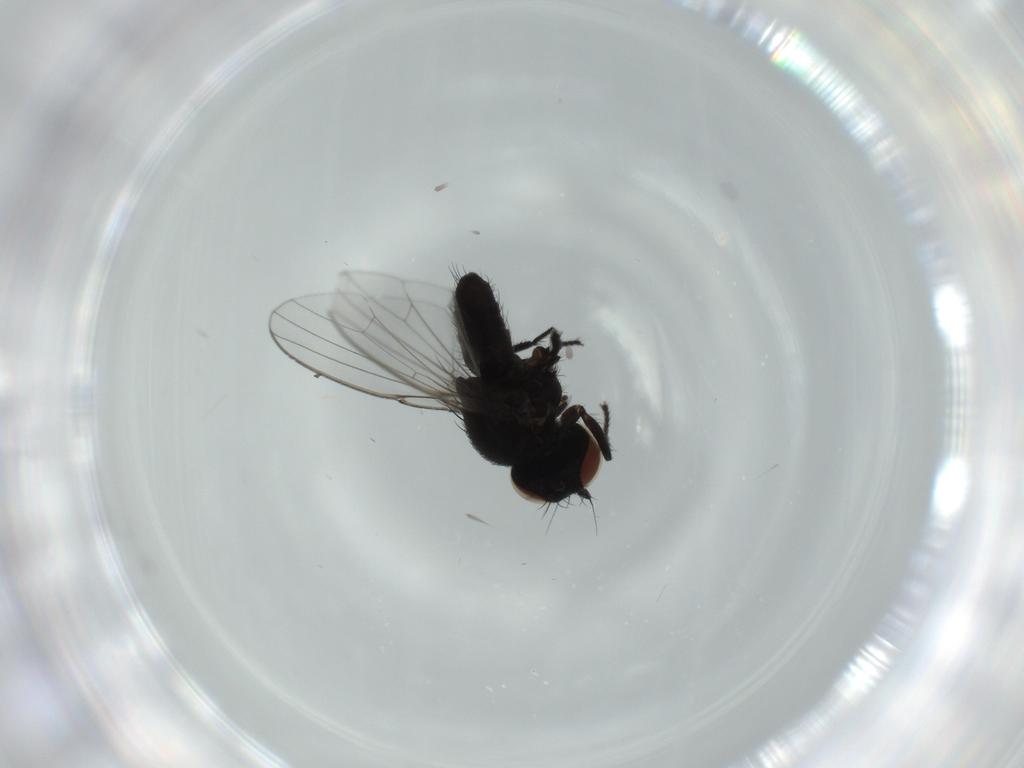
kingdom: Animalia
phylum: Arthropoda
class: Insecta
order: Diptera
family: Milichiidae
